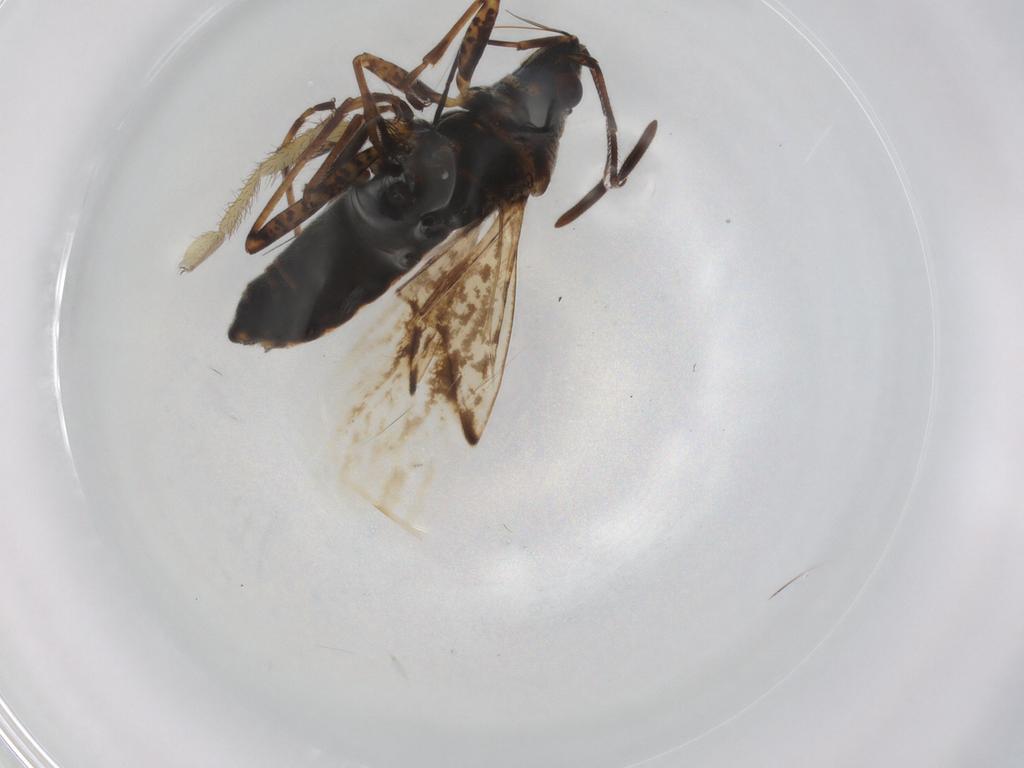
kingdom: Animalia
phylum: Arthropoda
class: Insecta
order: Hemiptera
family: Lygaeidae
